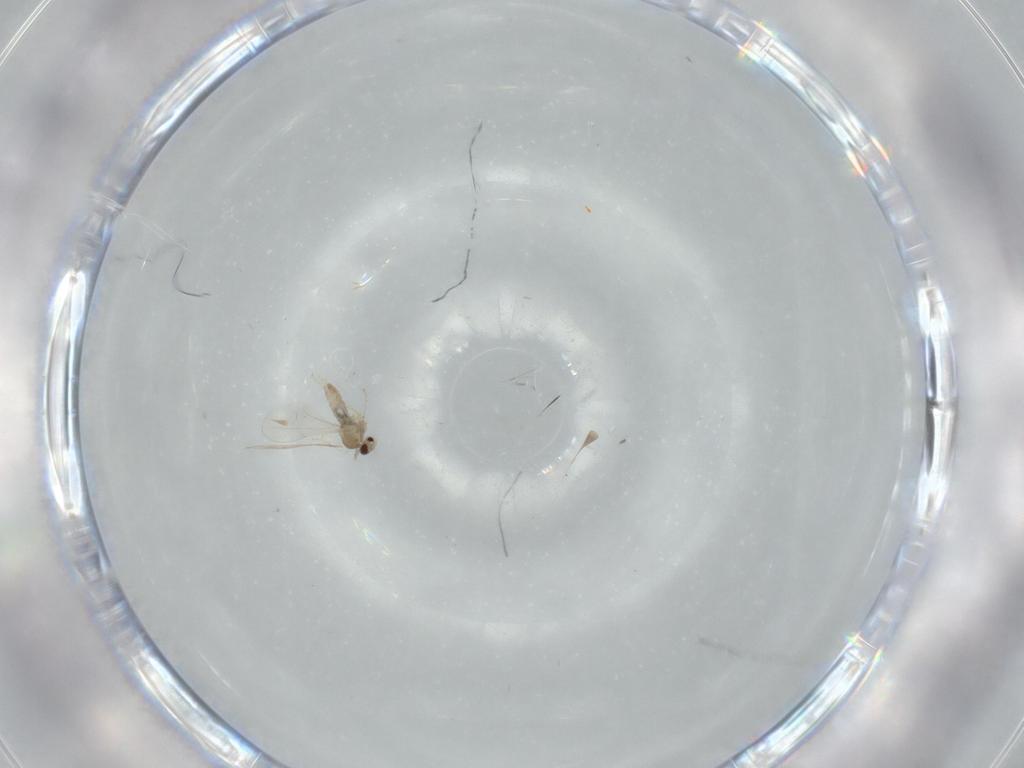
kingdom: Animalia
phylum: Arthropoda
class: Insecta
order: Diptera
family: Cecidomyiidae
